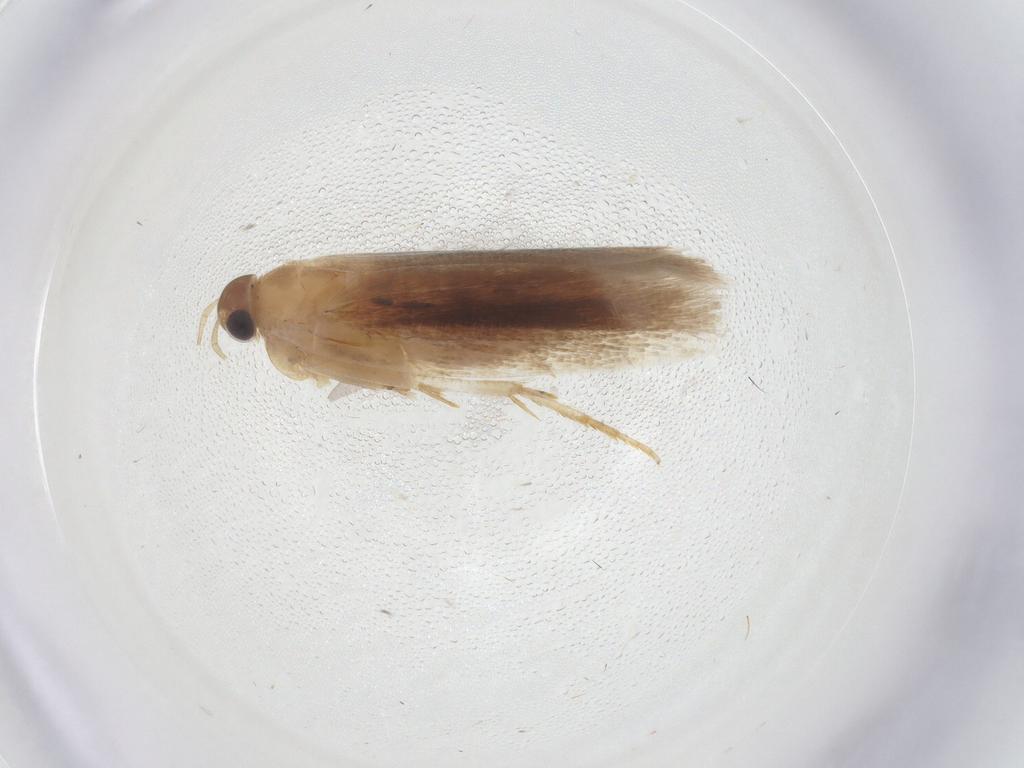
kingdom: Animalia
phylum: Arthropoda
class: Insecta
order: Lepidoptera
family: Gelechiidae
